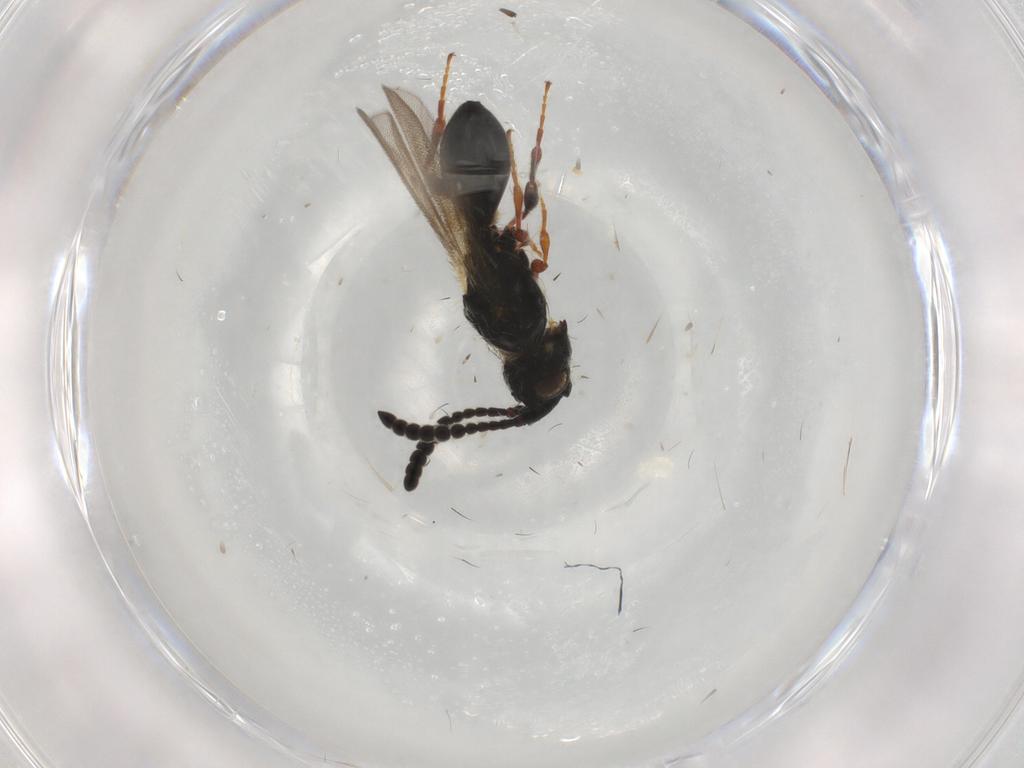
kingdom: Animalia
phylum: Arthropoda
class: Insecta
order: Hymenoptera
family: Formicidae
